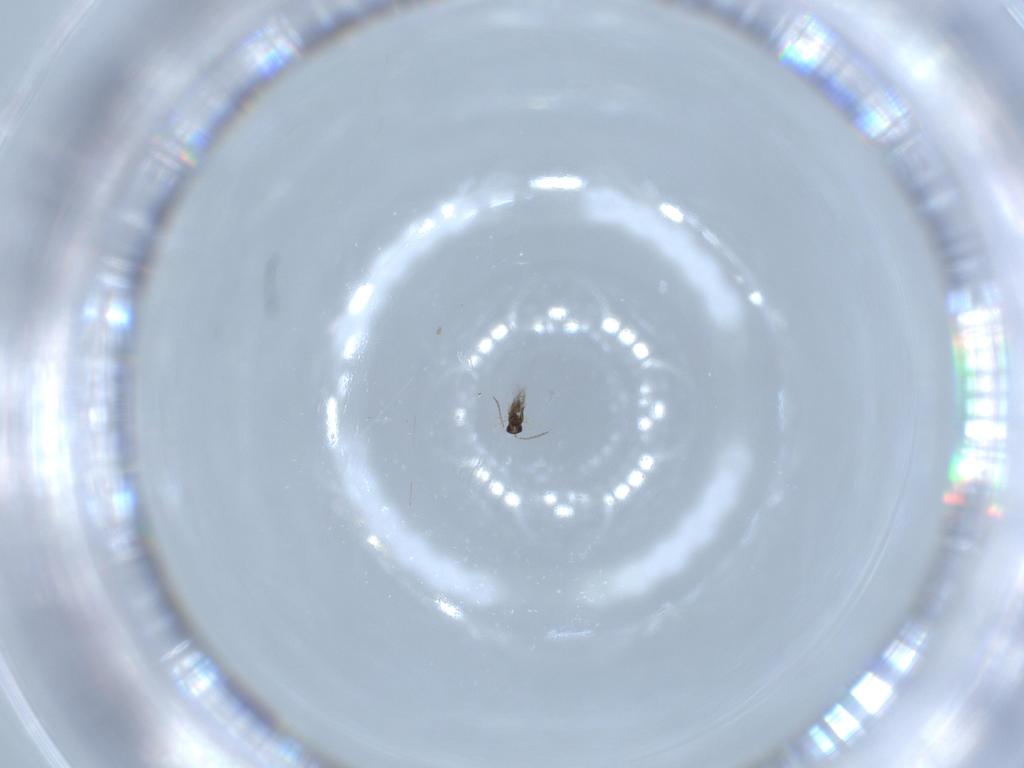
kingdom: Animalia
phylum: Arthropoda
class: Insecta
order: Hymenoptera
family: Mymaridae
